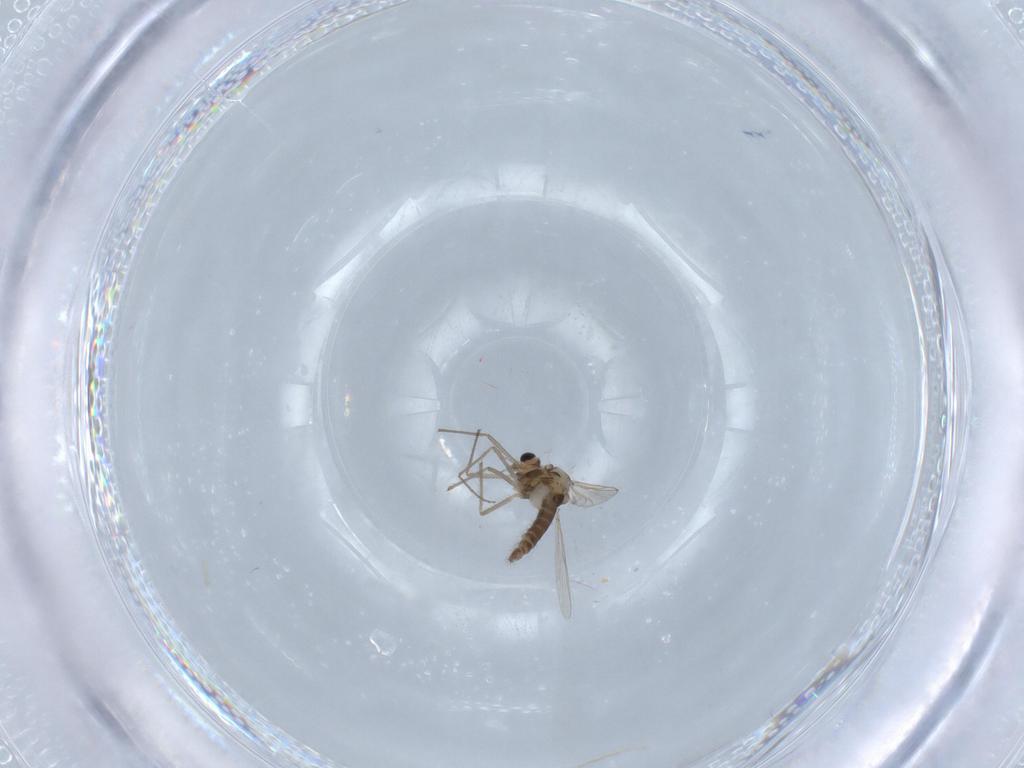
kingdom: Animalia
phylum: Arthropoda
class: Insecta
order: Diptera
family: Chironomidae
